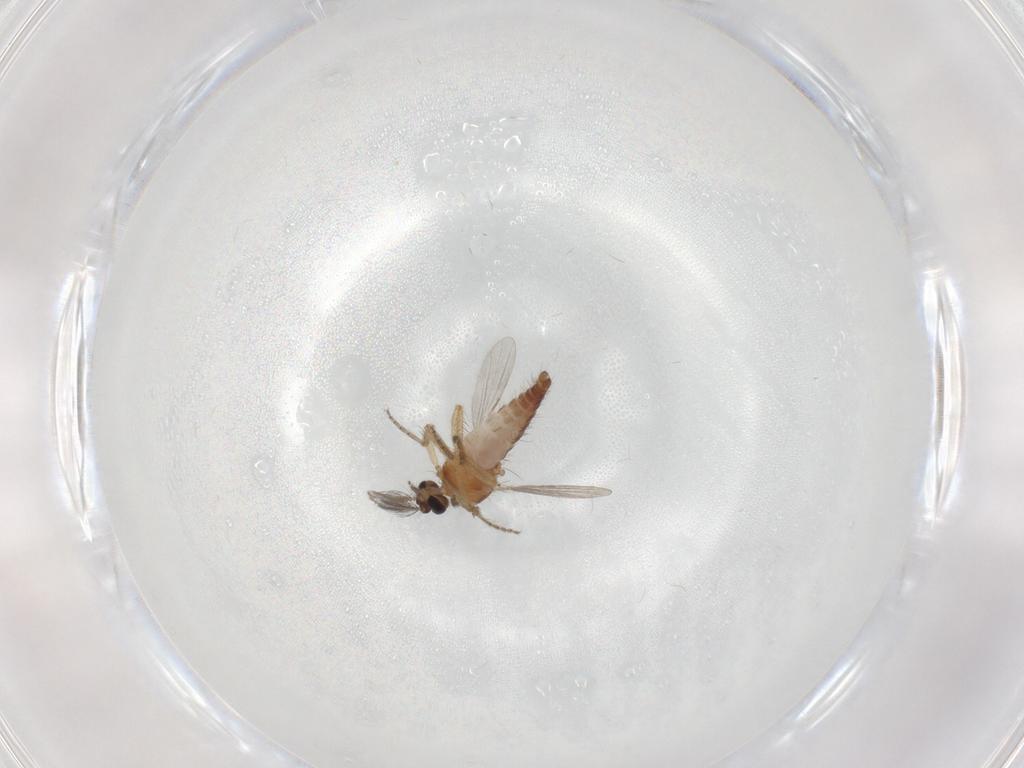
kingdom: Animalia
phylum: Arthropoda
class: Insecta
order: Diptera
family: Ceratopogonidae
